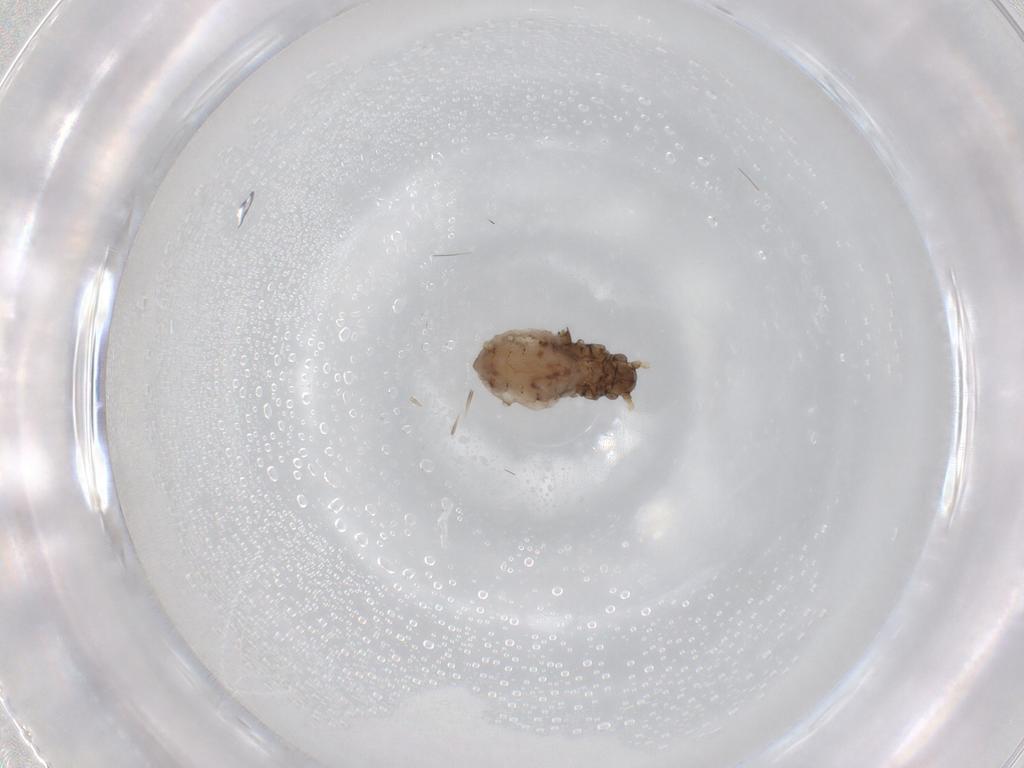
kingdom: Animalia
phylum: Arthropoda
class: Insecta
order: Hemiptera
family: Aphididae
